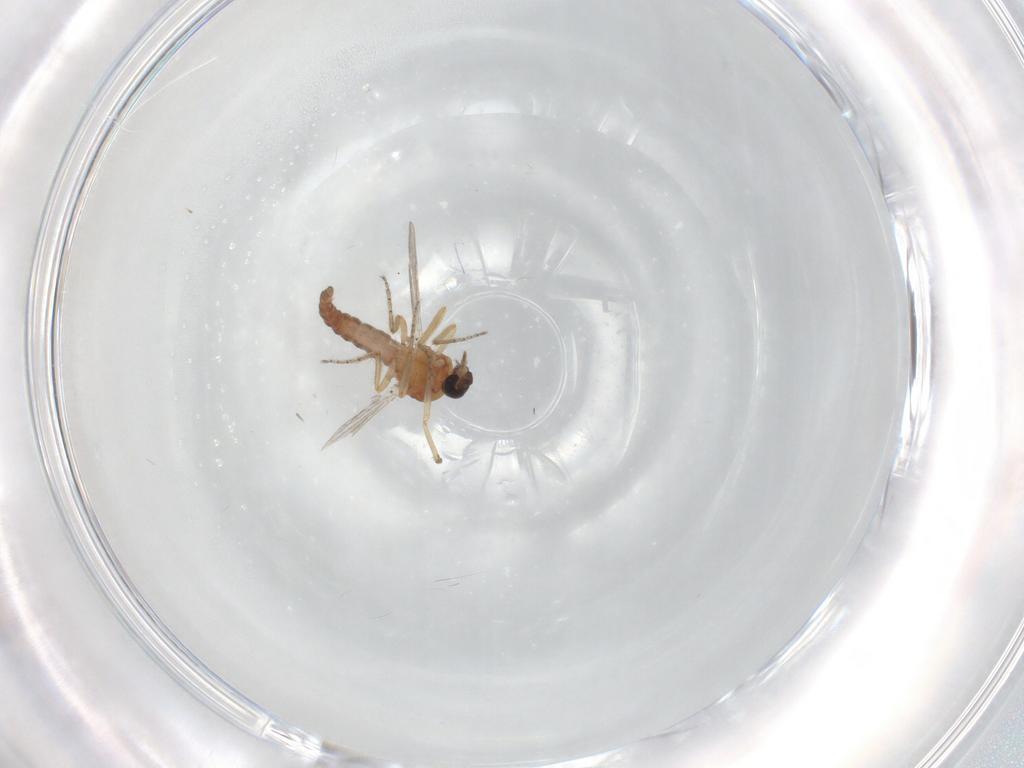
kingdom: Animalia
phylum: Arthropoda
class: Insecta
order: Diptera
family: Ceratopogonidae
